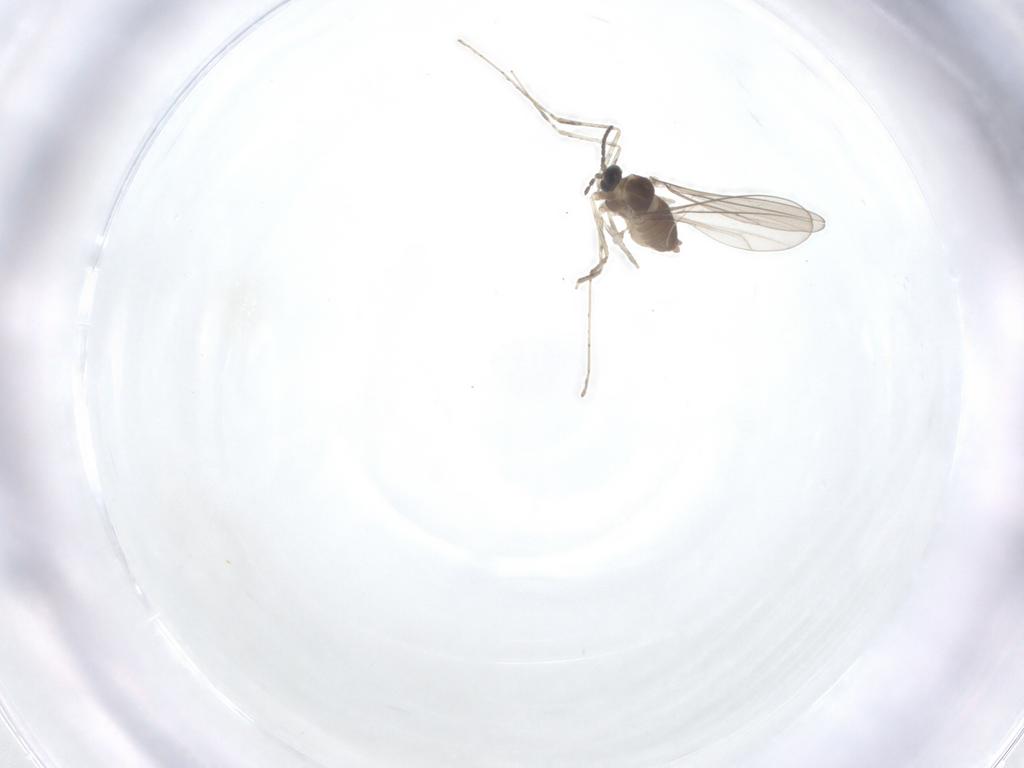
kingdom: Animalia
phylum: Arthropoda
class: Insecta
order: Diptera
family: Cecidomyiidae
